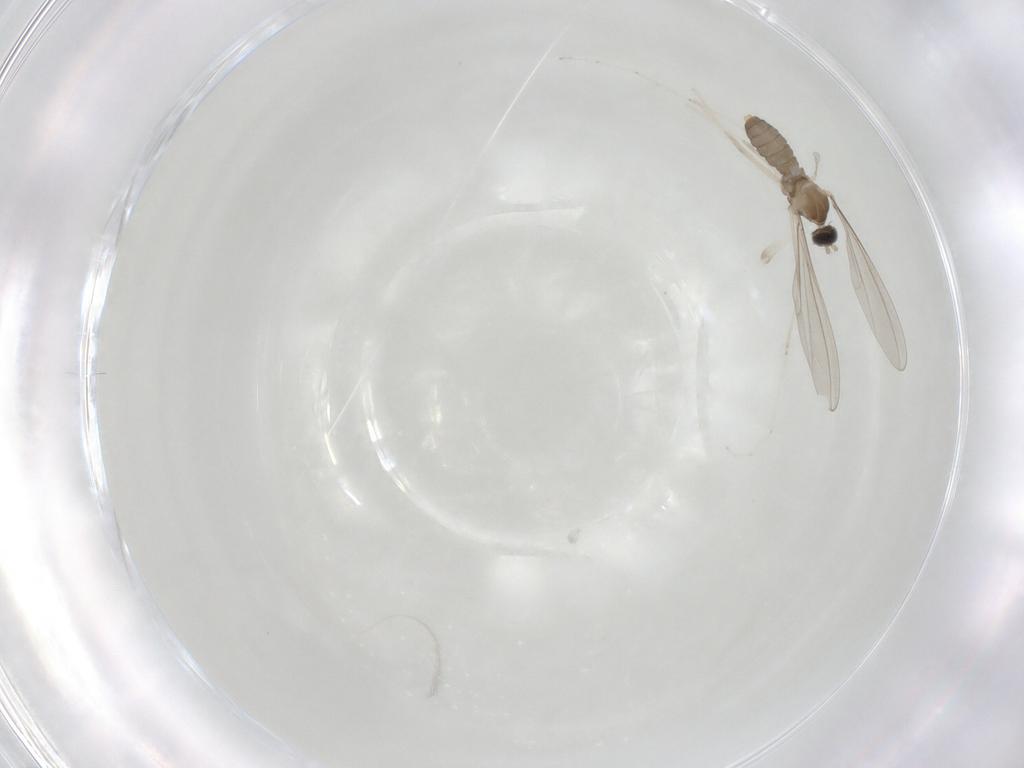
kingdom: Animalia
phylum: Arthropoda
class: Insecta
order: Diptera
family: Cecidomyiidae
